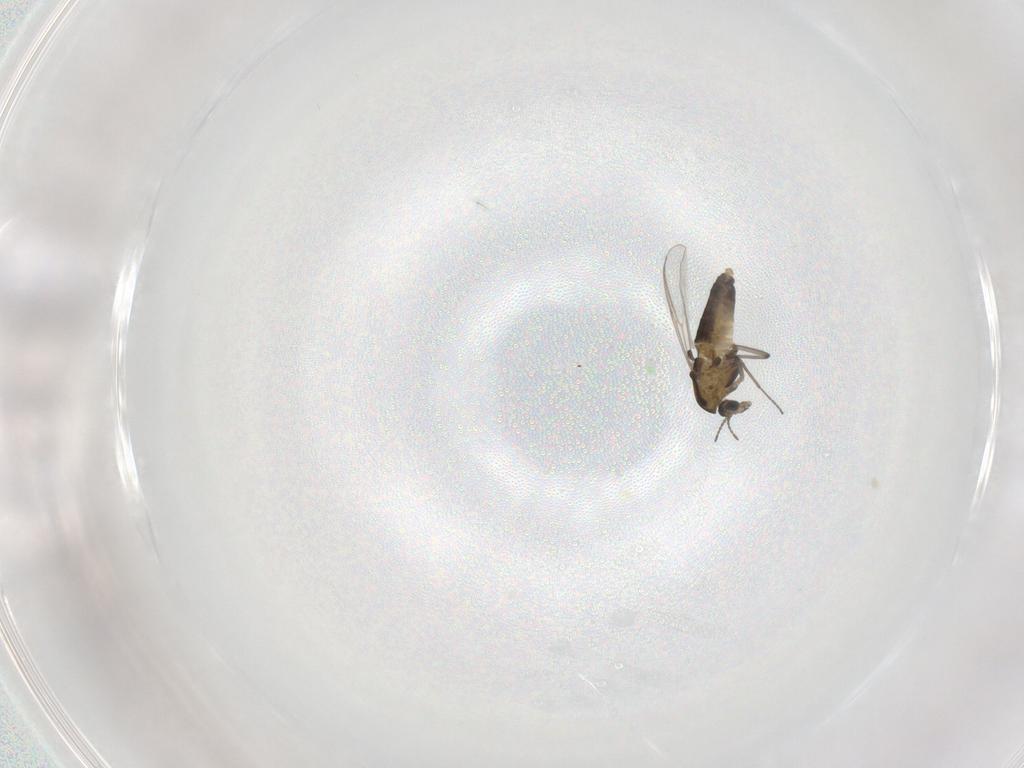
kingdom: Animalia
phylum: Arthropoda
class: Insecta
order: Diptera
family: Chironomidae
